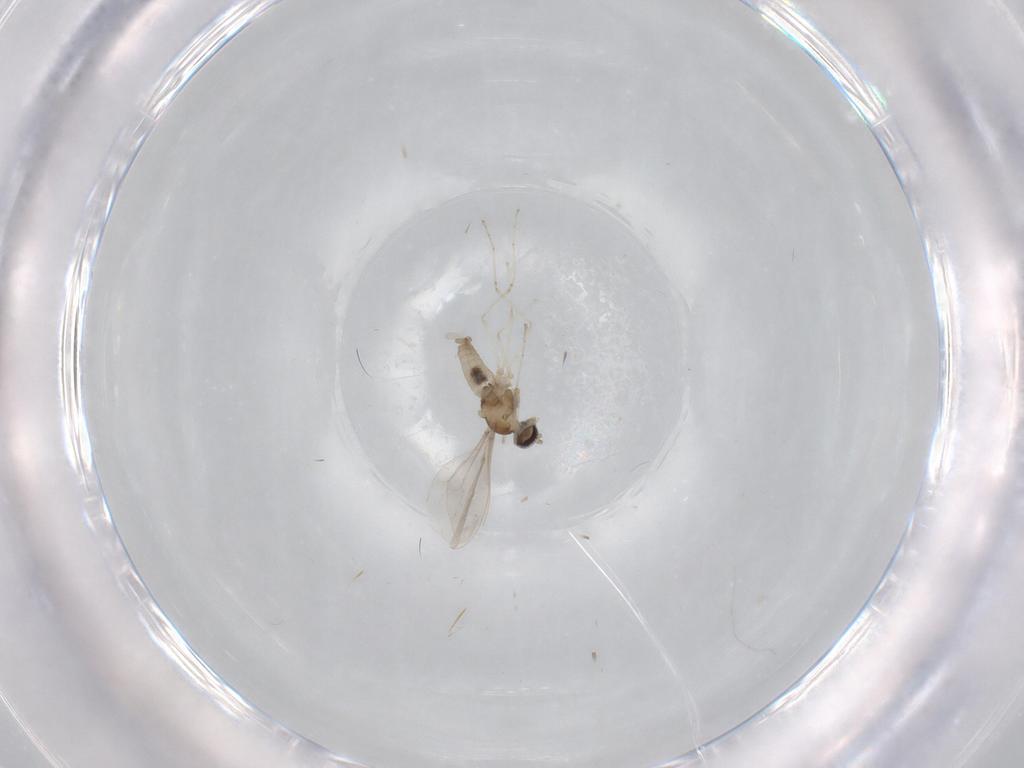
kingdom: Animalia
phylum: Arthropoda
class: Insecta
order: Diptera
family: Cecidomyiidae
